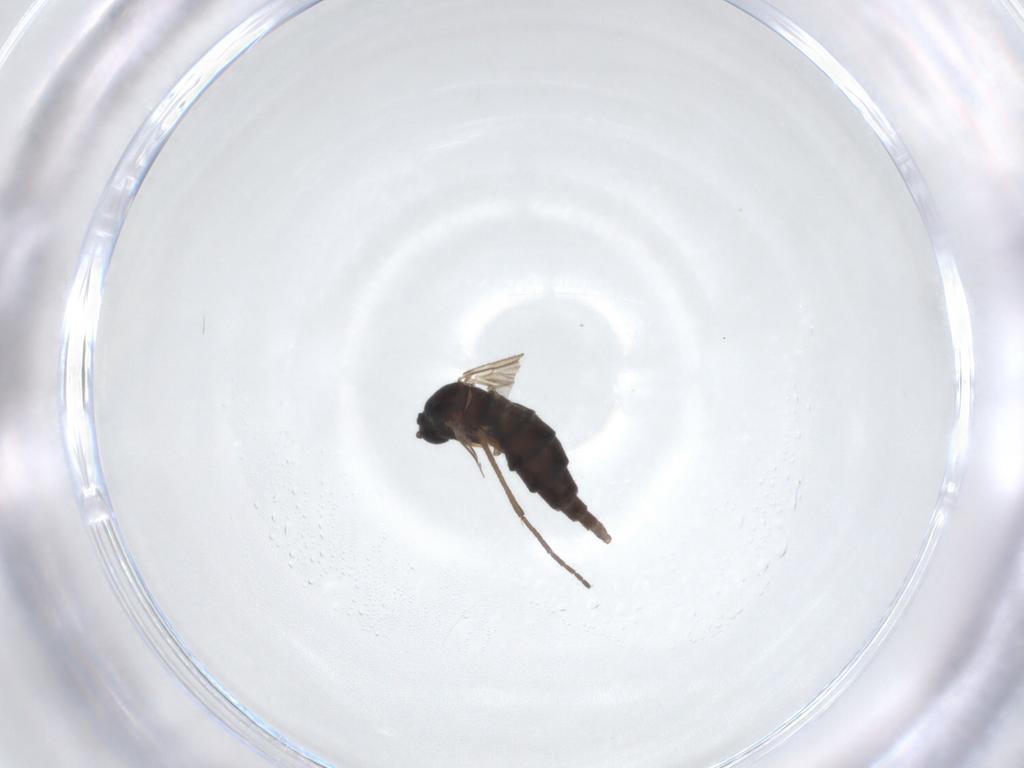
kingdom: Animalia
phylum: Arthropoda
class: Insecta
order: Diptera
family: Sciaridae
